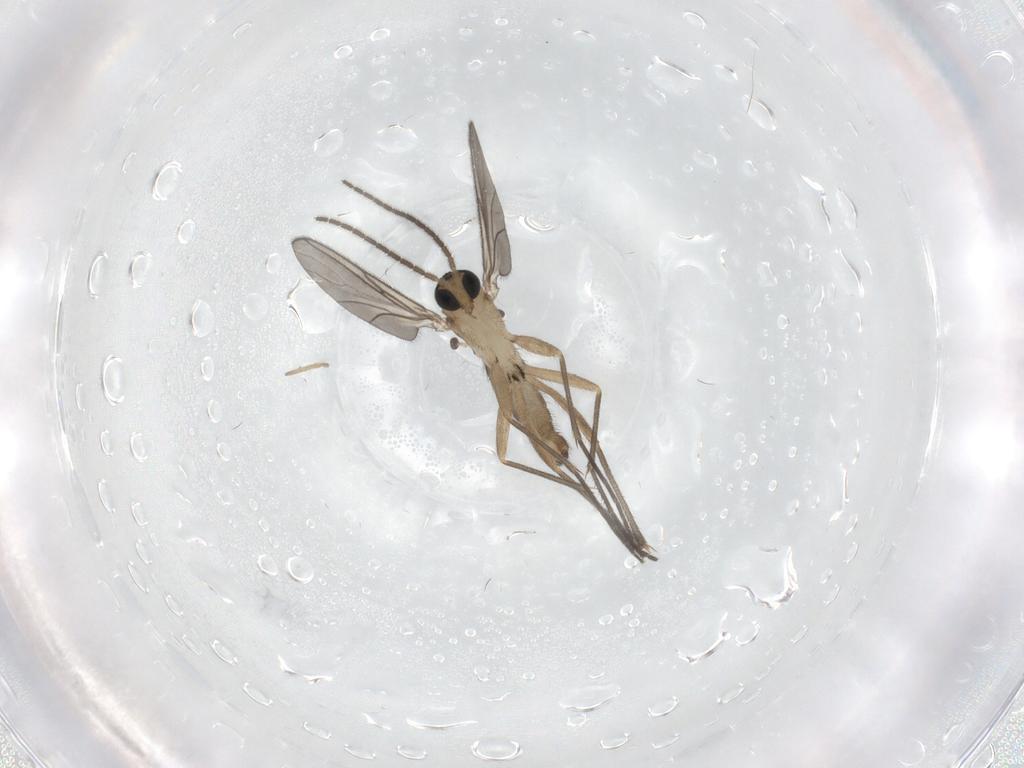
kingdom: Animalia
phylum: Arthropoda
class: Insecta
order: Diptera
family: Sciaridae
